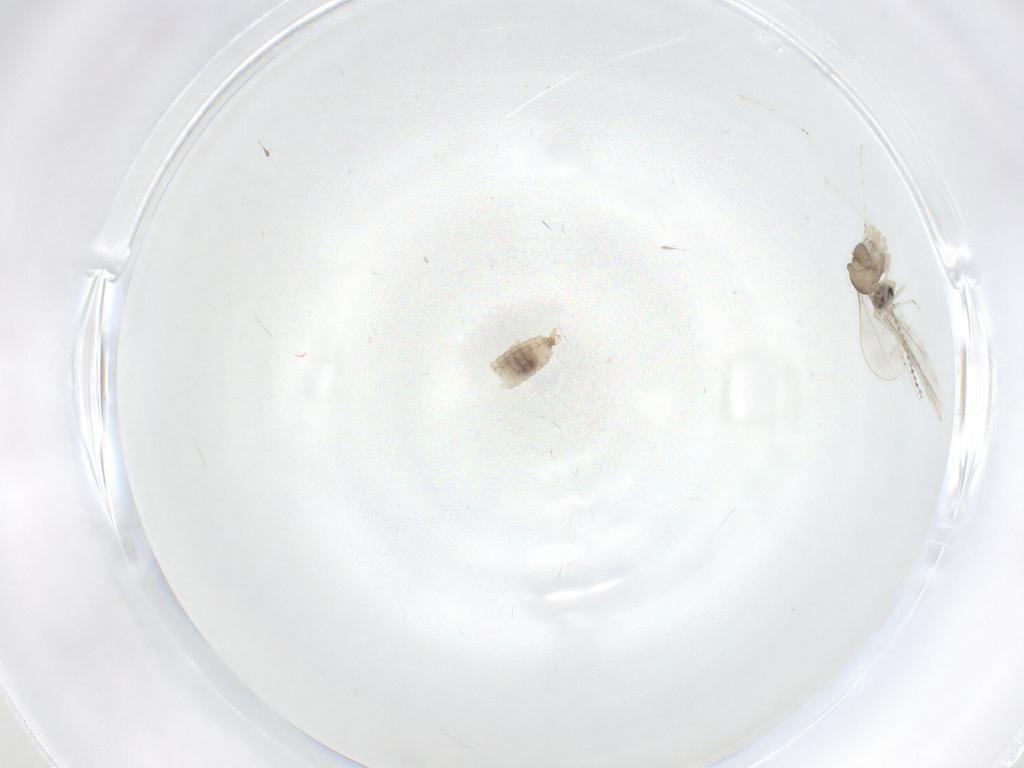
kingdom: Animalia
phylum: Arthropoda
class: Insecta
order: Diptera
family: Cecidomyiidae
